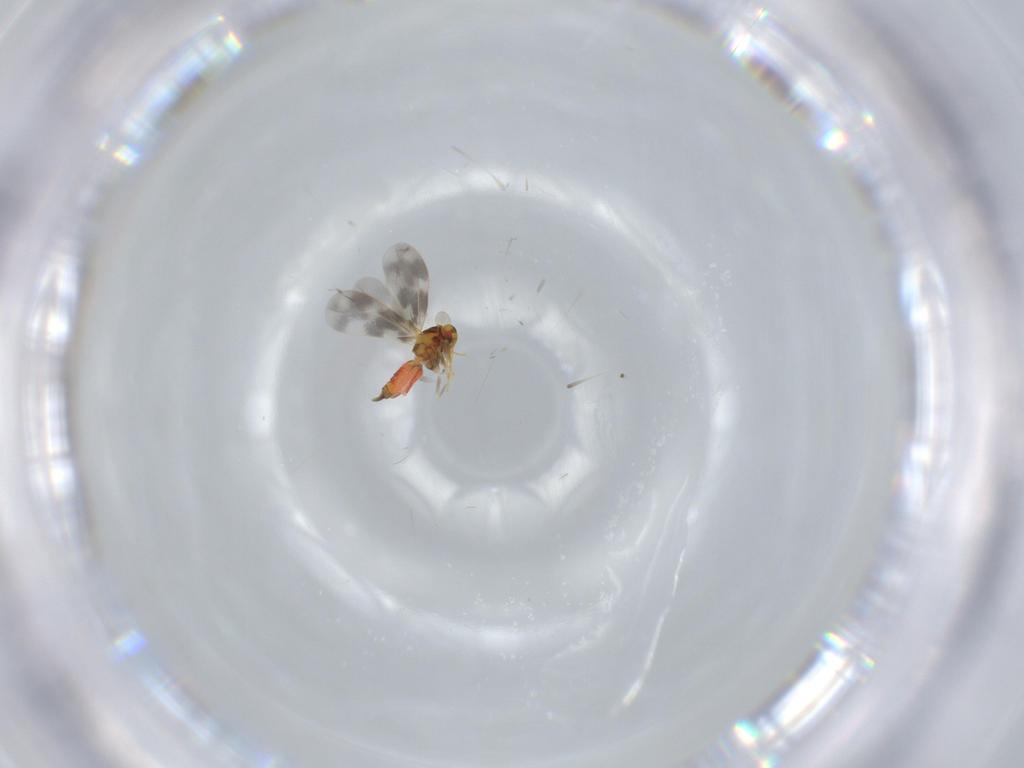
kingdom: Animalia
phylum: Arthropoda
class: Insecta
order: Hemiptera
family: Aleyrodidae
